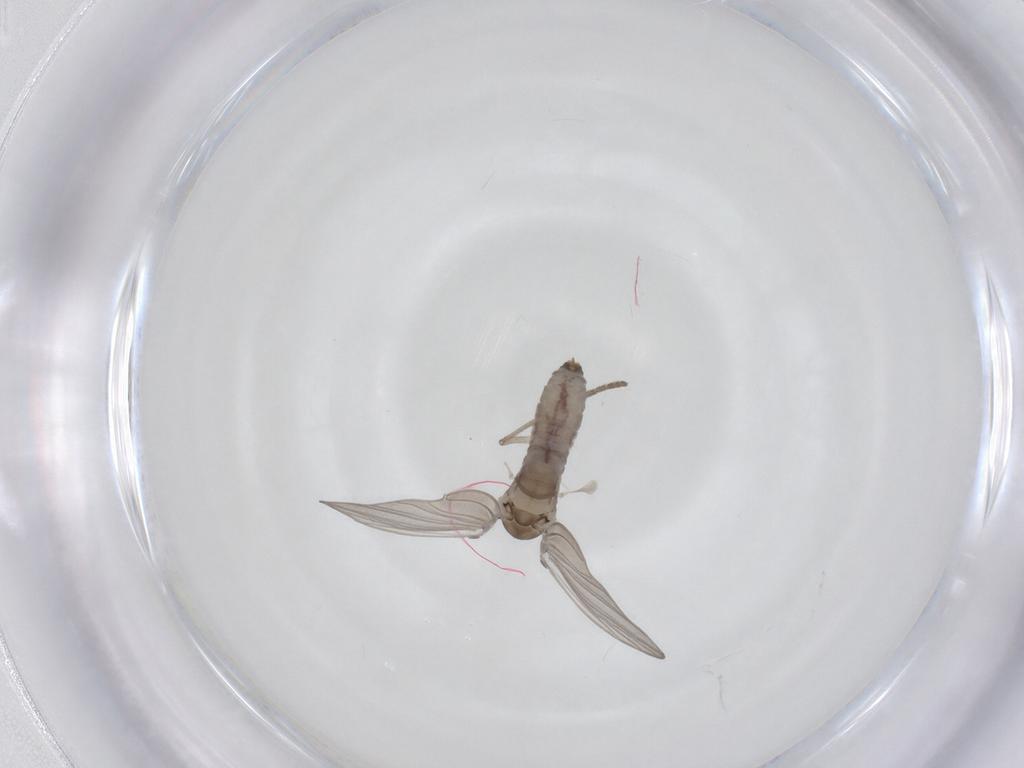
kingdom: Animalia
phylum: Arthropoda
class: Insecta
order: Diptera
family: Psychodidae
